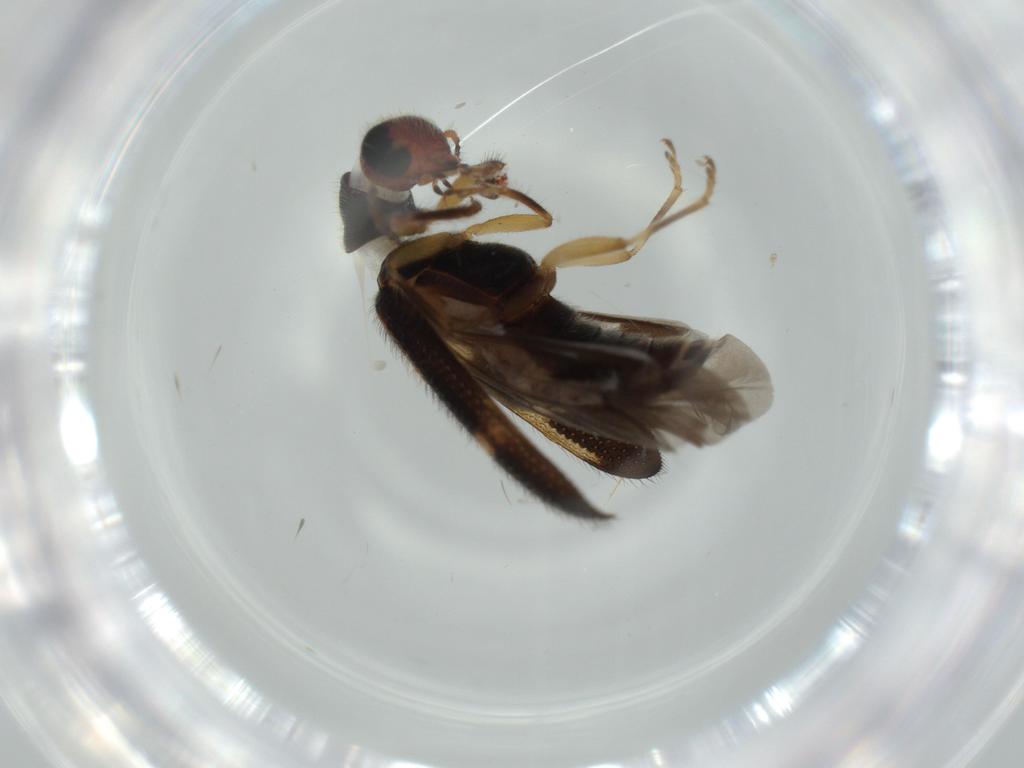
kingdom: Animalia
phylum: Arthropoda
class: Insecta
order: Coleoptera
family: Cleridae
